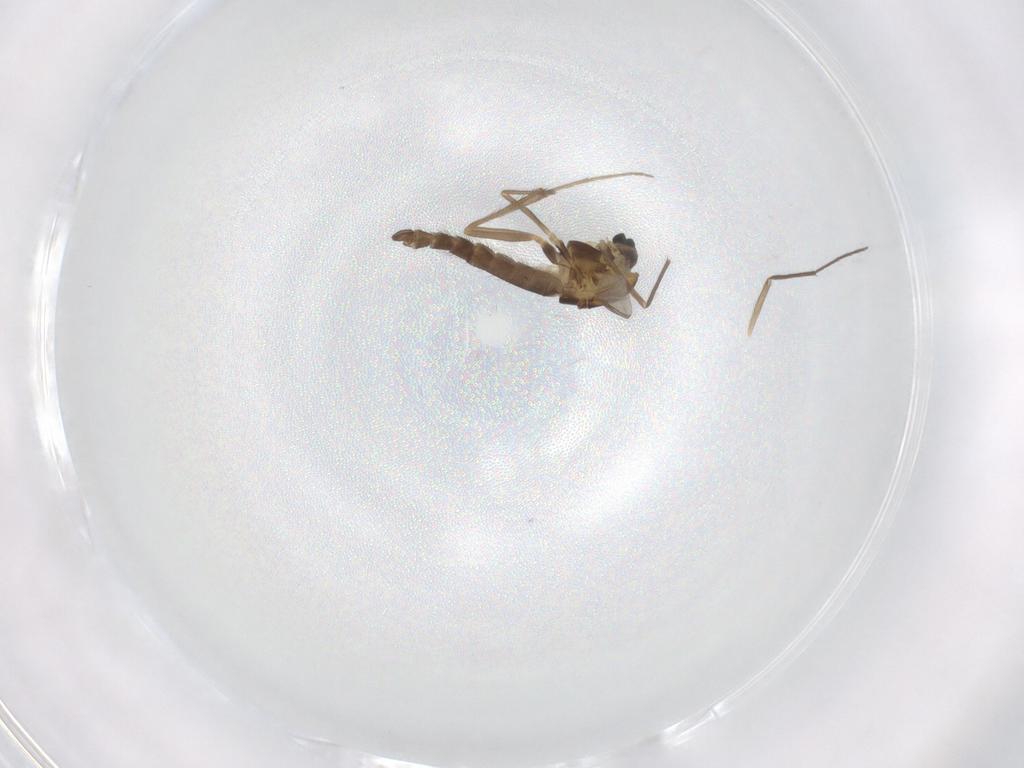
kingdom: Animalia
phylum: Arthropoda
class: Insecta
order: Diptera
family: Chironomidae
